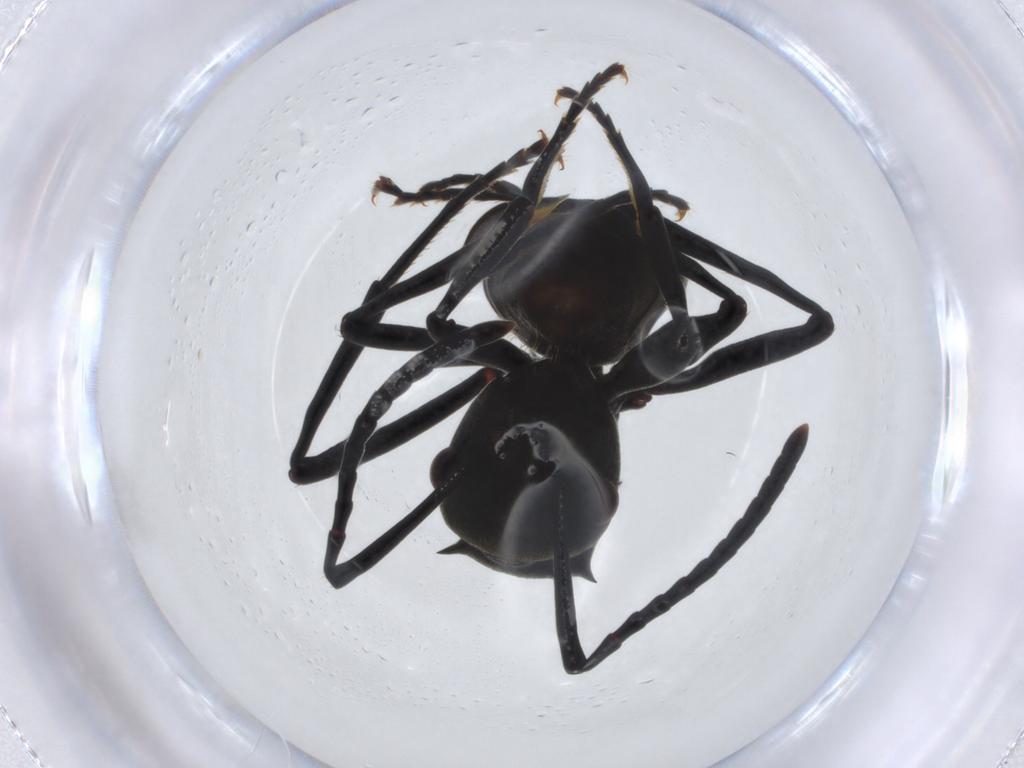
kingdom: Animalia
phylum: Arthropoda
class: Insecta
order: Hymenoptera
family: Formicidae
